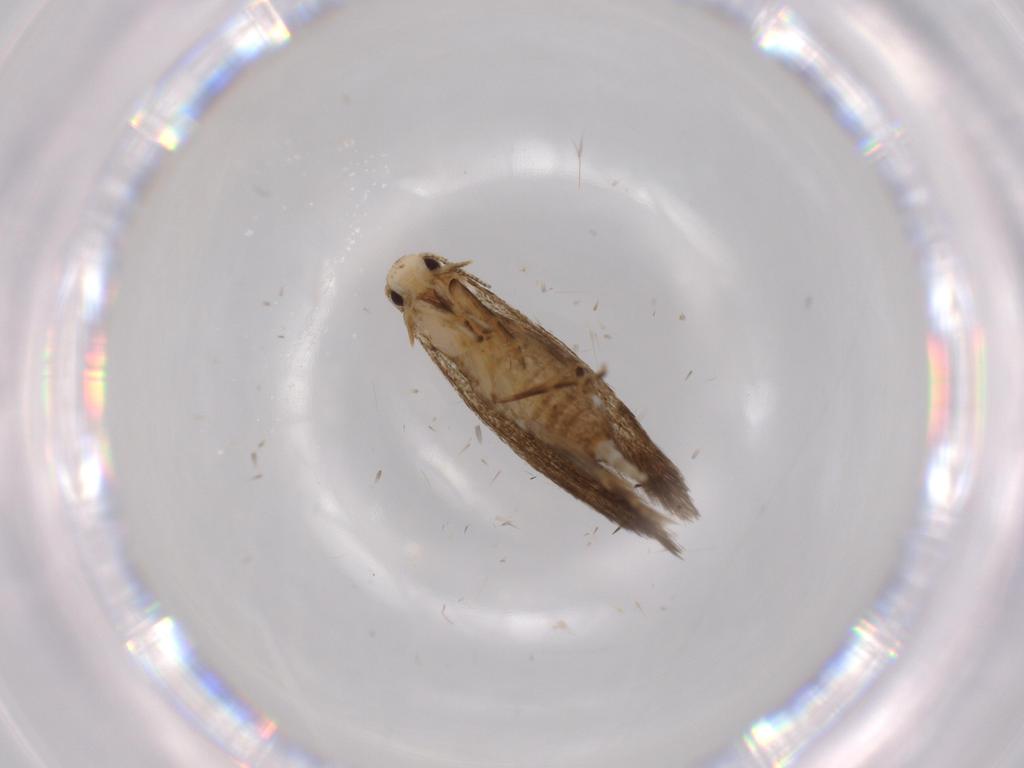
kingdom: Animalia
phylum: Arthropoda
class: Insecta
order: Lepidoptera
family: Tineidae
